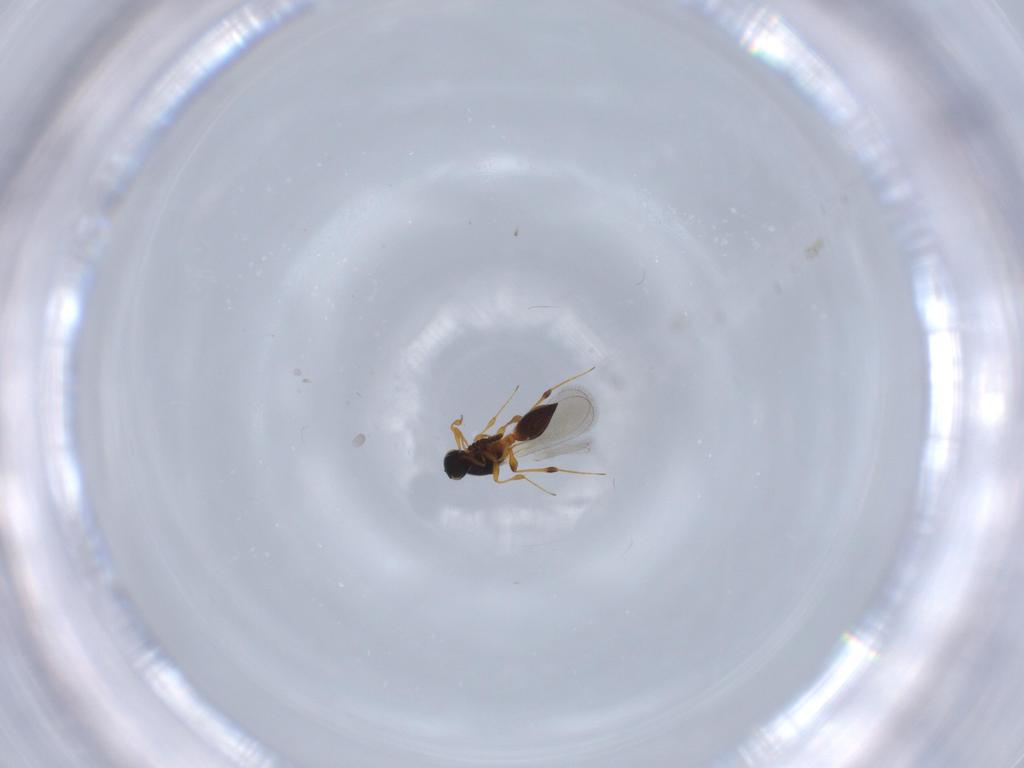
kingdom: Animalia
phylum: Arthropoda
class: Insecta
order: Hymenoptera
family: Platygastridae
